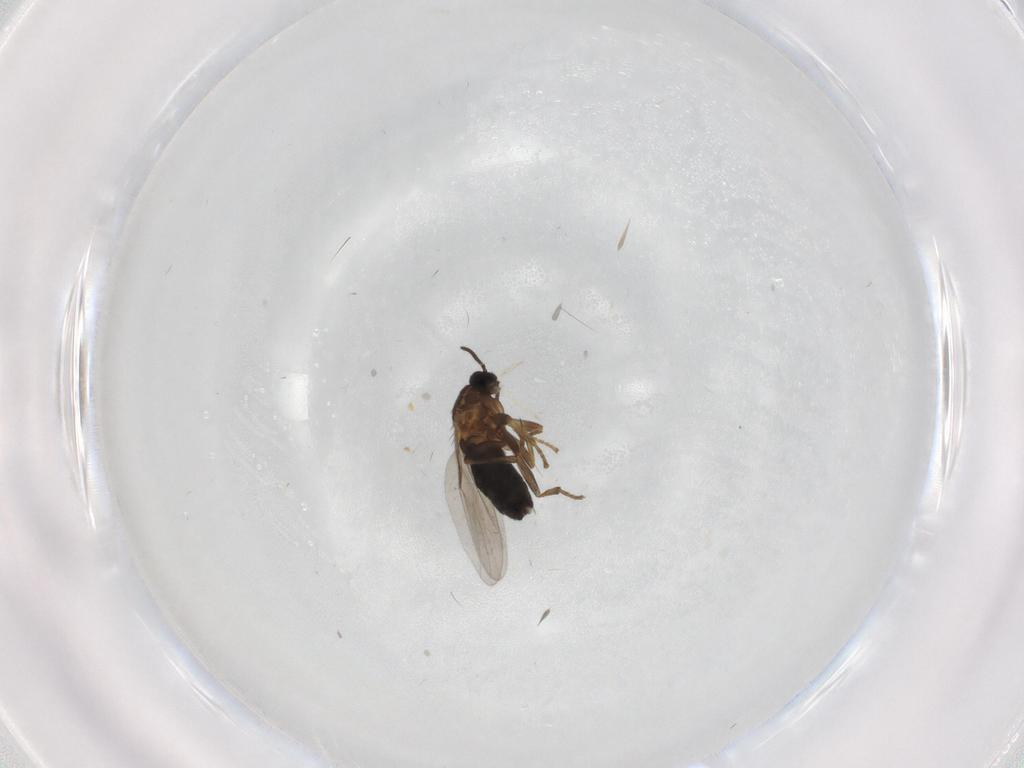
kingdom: Animalia
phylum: Arthropoda
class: Insecta
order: Diptera
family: Scatopsidae
